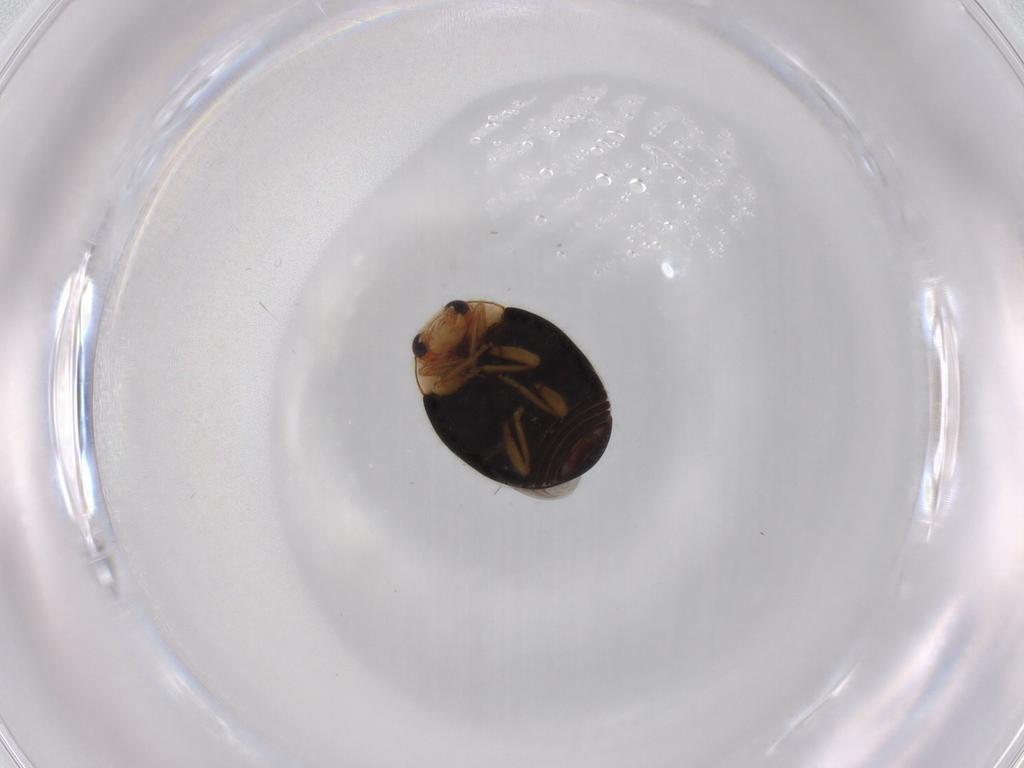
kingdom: Animalia
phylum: Arthropoda
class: Insecta
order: Coleoptera
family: Coccinellidae
